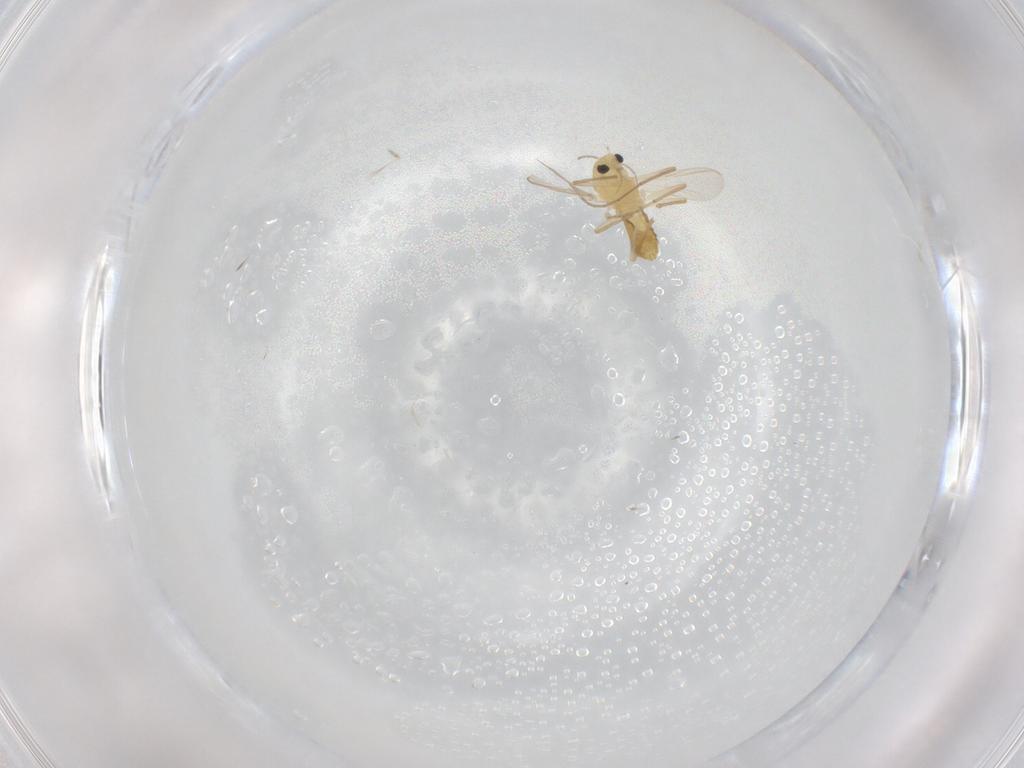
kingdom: Animalia
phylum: Arthropoda
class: Insecta
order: Diptera
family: Chironomidae
